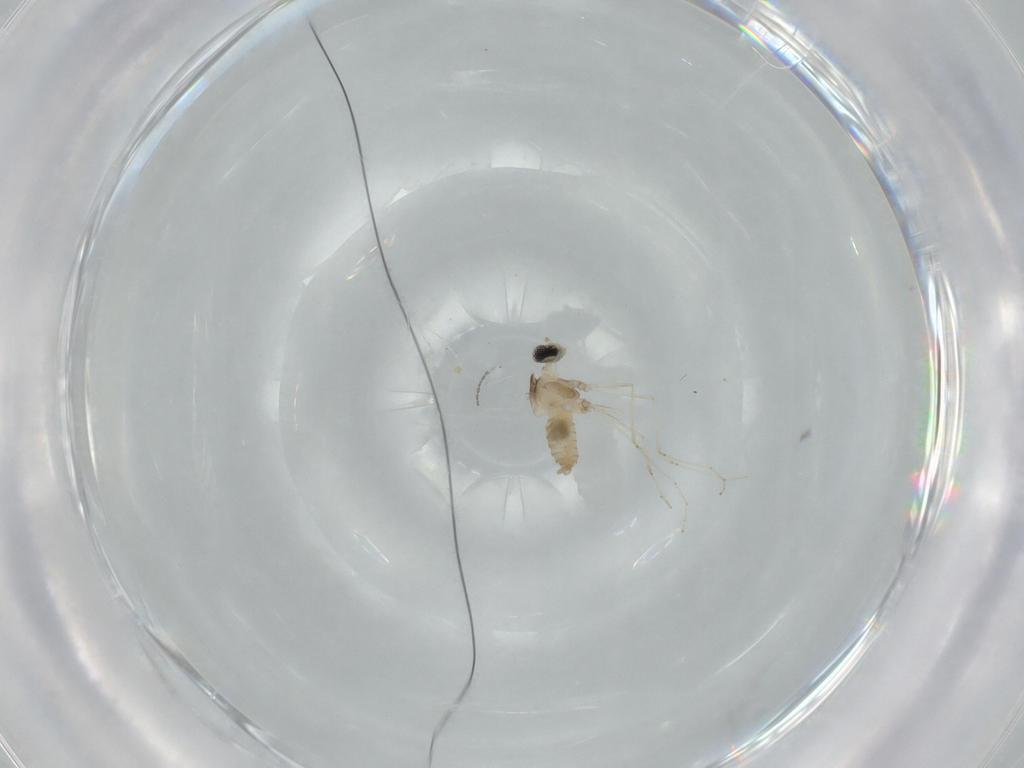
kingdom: Animalia
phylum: Arthropoda
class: Insecta
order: Diptera
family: Cecidomyiidae
